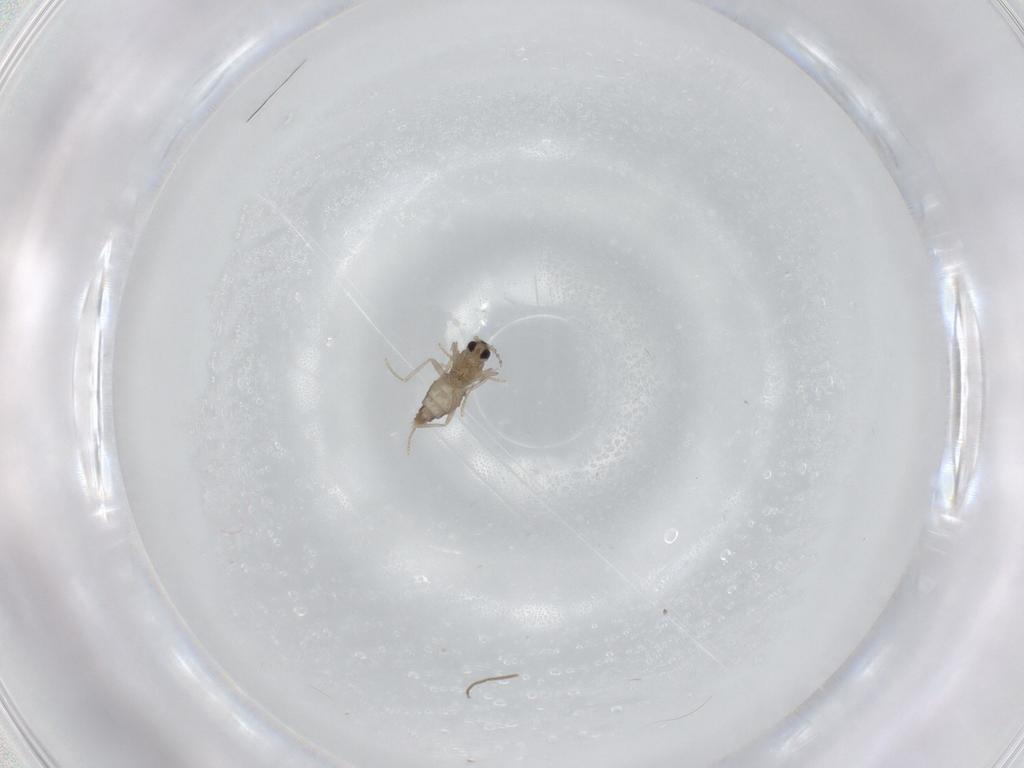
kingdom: Animalia
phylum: Arthropoda
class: Insecta
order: Diptera
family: Cecidomyiidae
